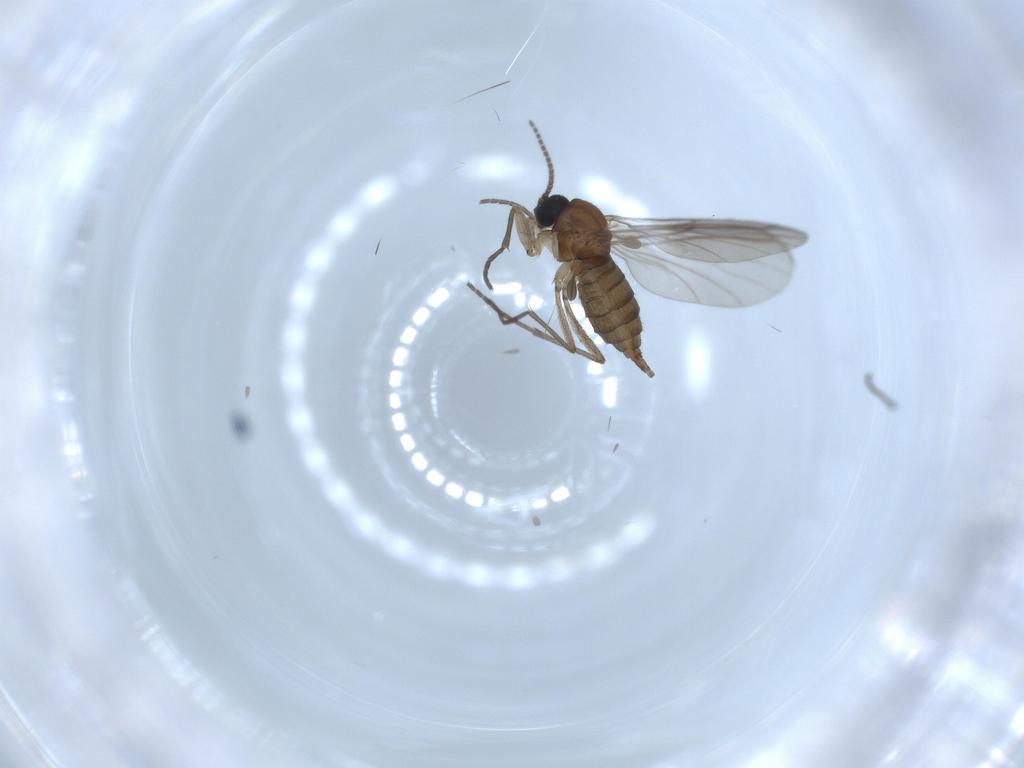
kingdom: Animalia
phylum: Arthropoda
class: Insecta
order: Diptera
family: Sciaridae
